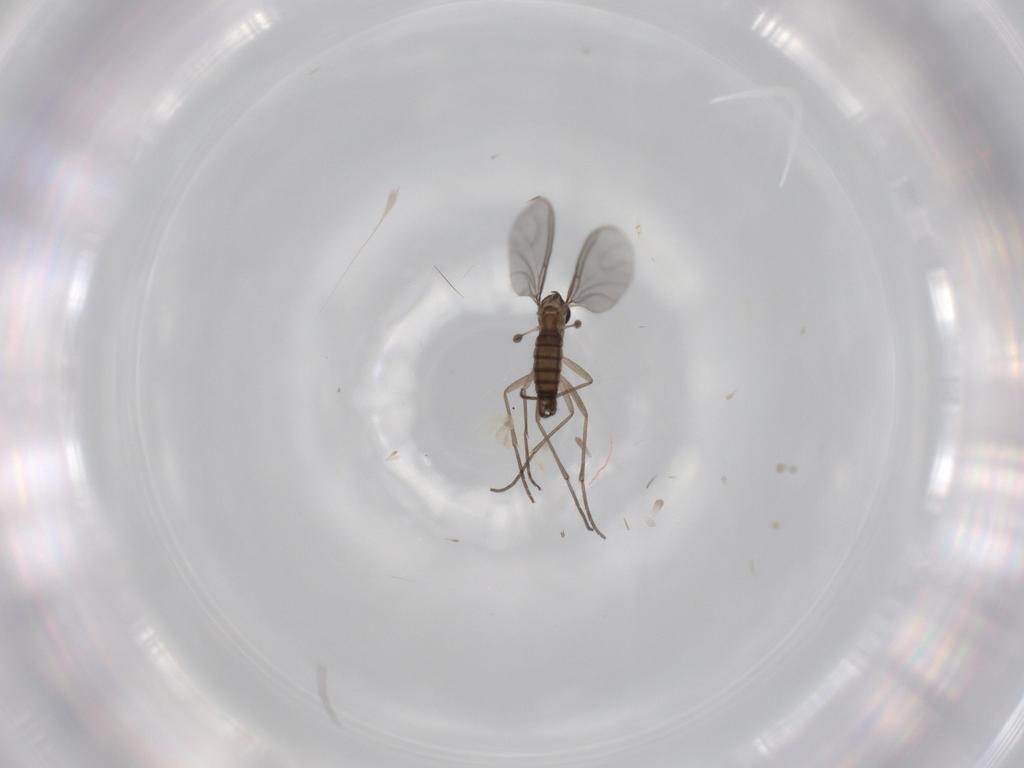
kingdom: Animalia
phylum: Arthropoda
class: Insecta
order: Diptera
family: Sciaridae
